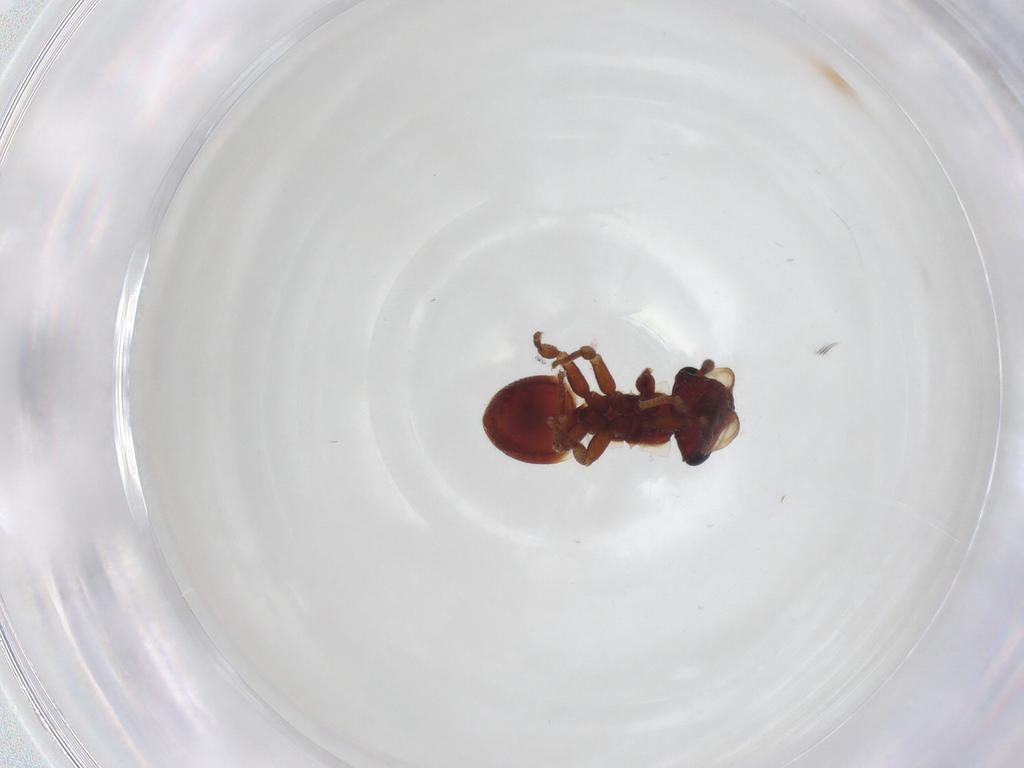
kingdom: Animalia
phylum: Arthropoda
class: Insecta
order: Hymenoptera
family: Formicidae
